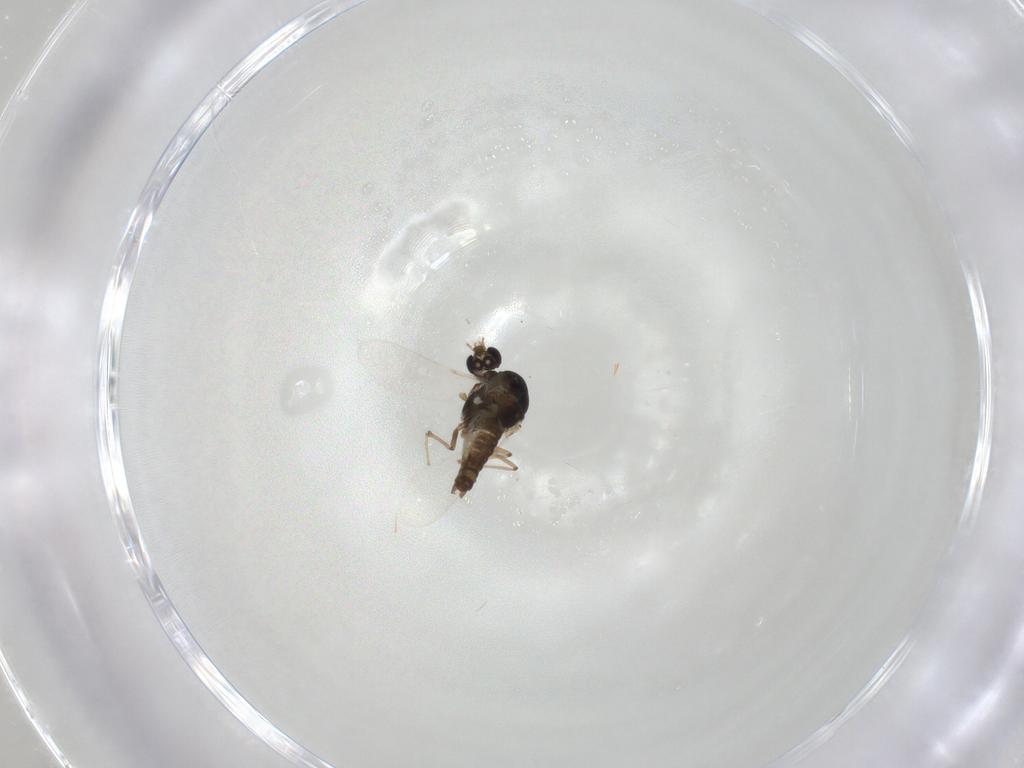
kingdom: Animalia
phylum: Arthropoda
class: Insecta
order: Diptera
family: Chironomidae
